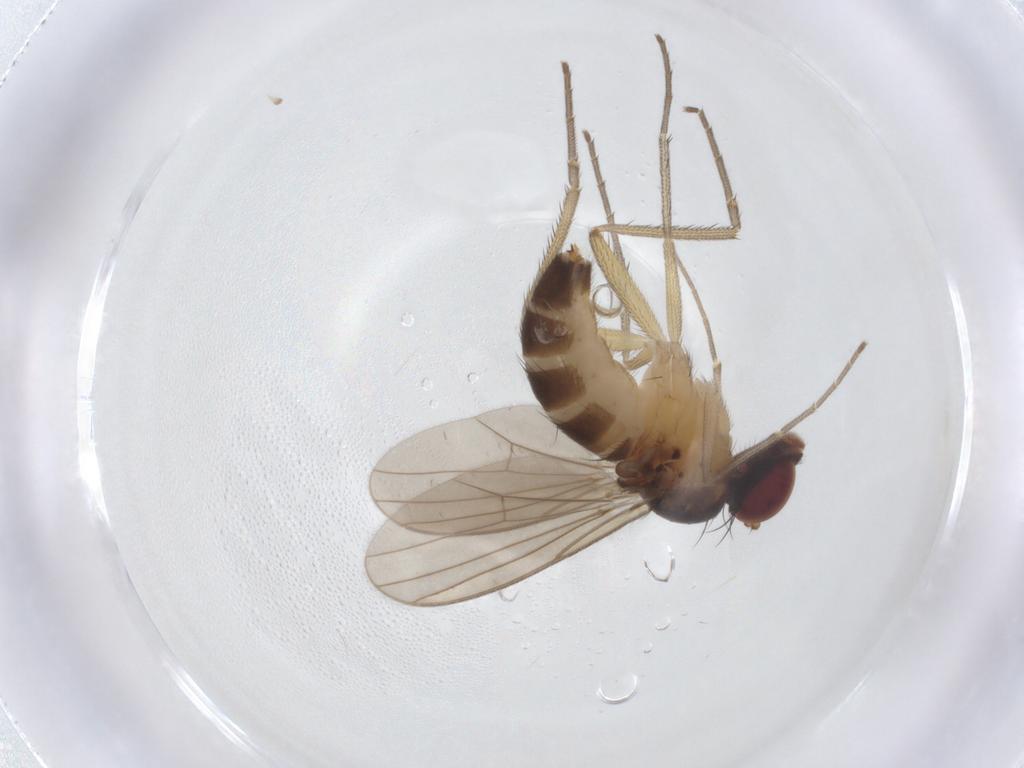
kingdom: Animalia
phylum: Arthropoda
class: Insecta
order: Diptera
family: Dolichopodidae
